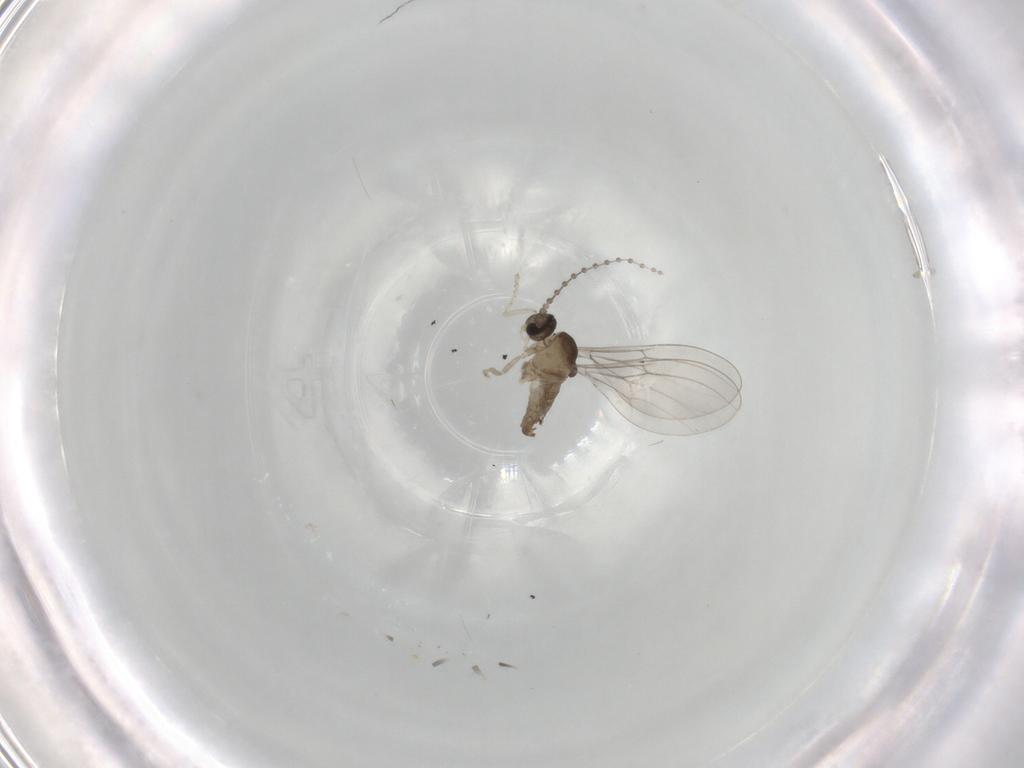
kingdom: Animalia
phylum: Arthropoda
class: Insecta
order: Diptera
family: Cecidomyiidae
